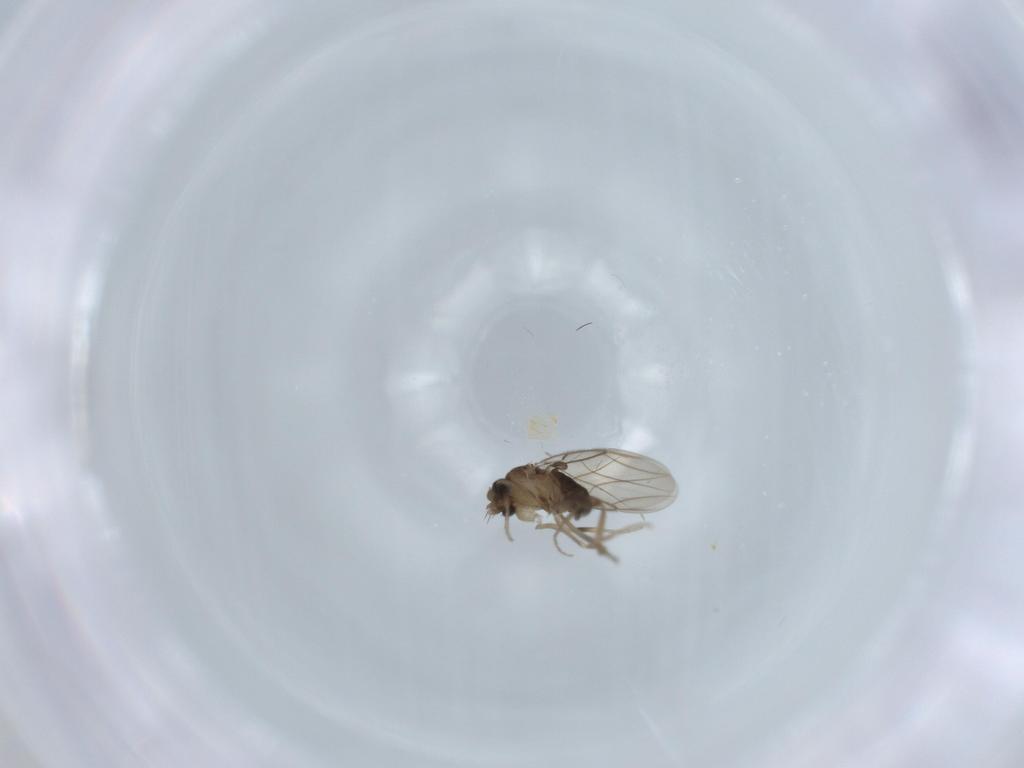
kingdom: Animalia
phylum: Arthropoda
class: Insecta
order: Diptera
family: Phoridae
